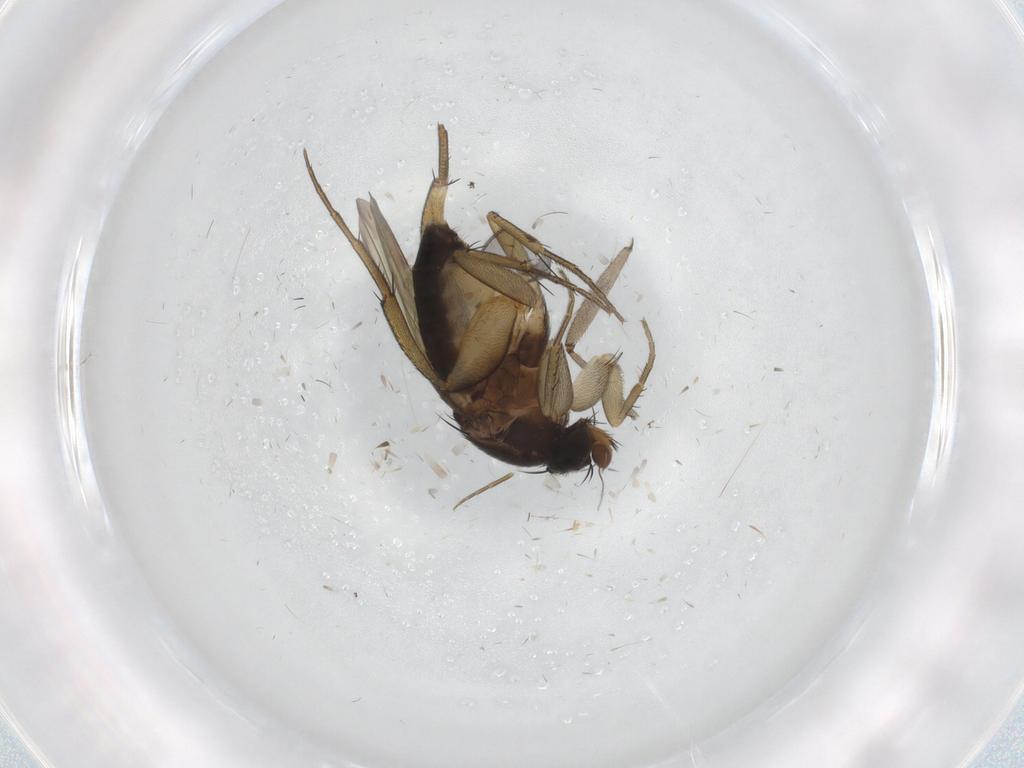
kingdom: Animalia
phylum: Arthropoda
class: Insecta
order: Diptera
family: Phoridae
